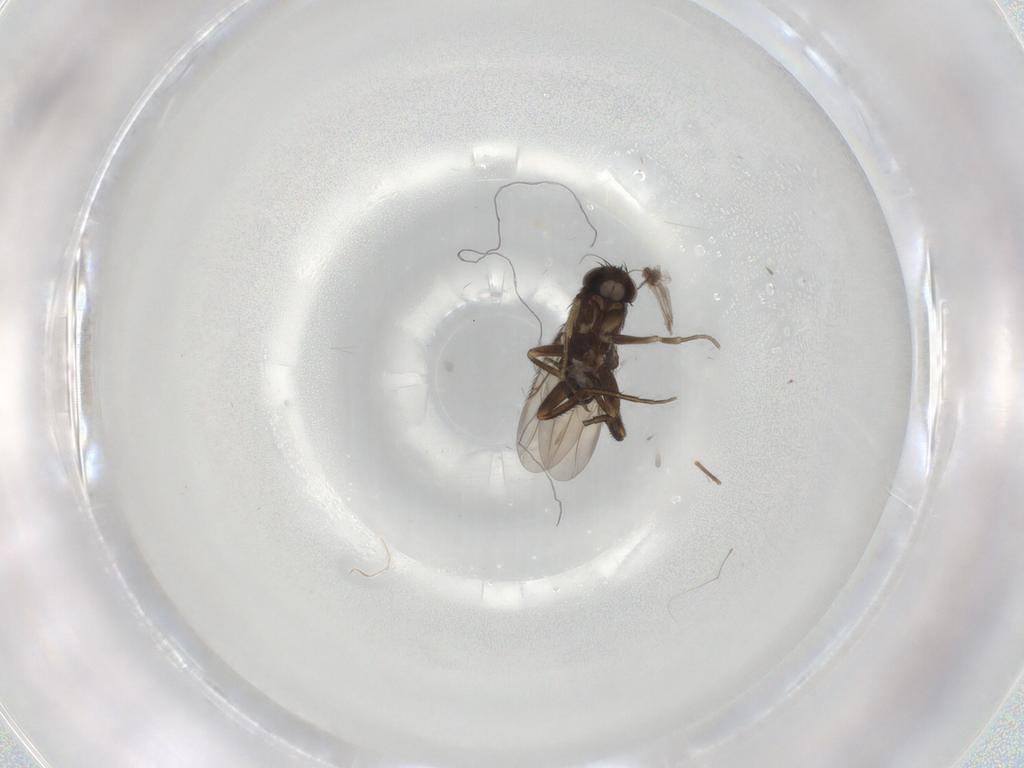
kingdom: Animalia
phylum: Arthropoda
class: Insecta
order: Diptera
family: Phoridae
